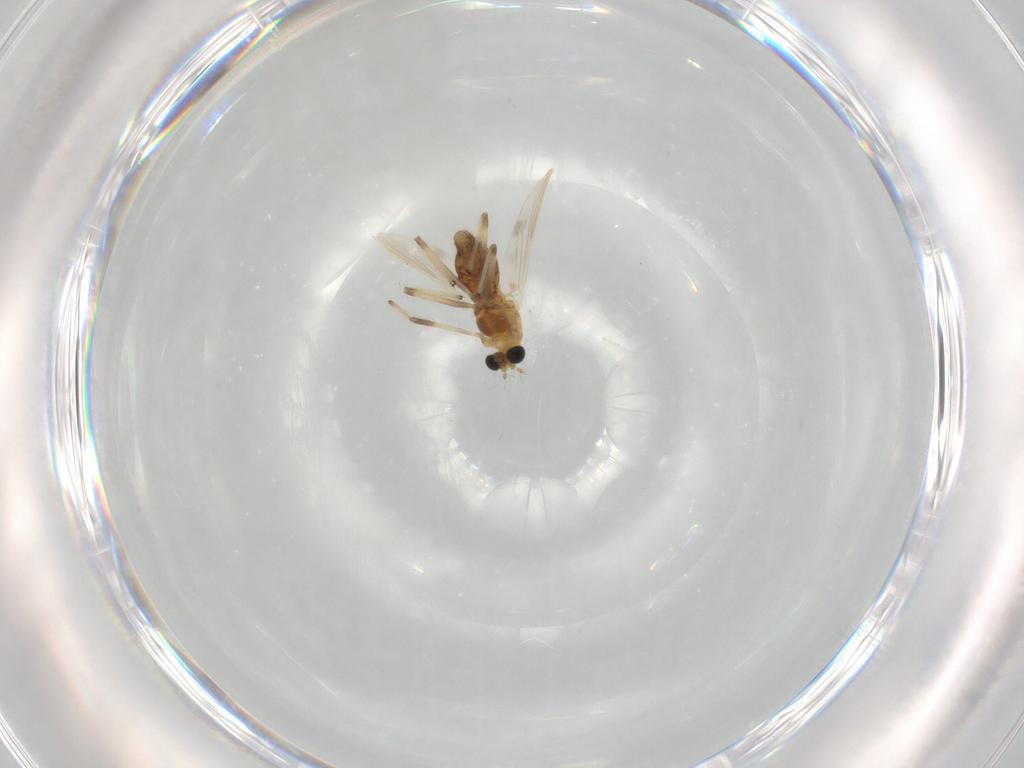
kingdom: Animalia
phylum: Arthropoda
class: Insecta
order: Diptera
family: Chironomidae
